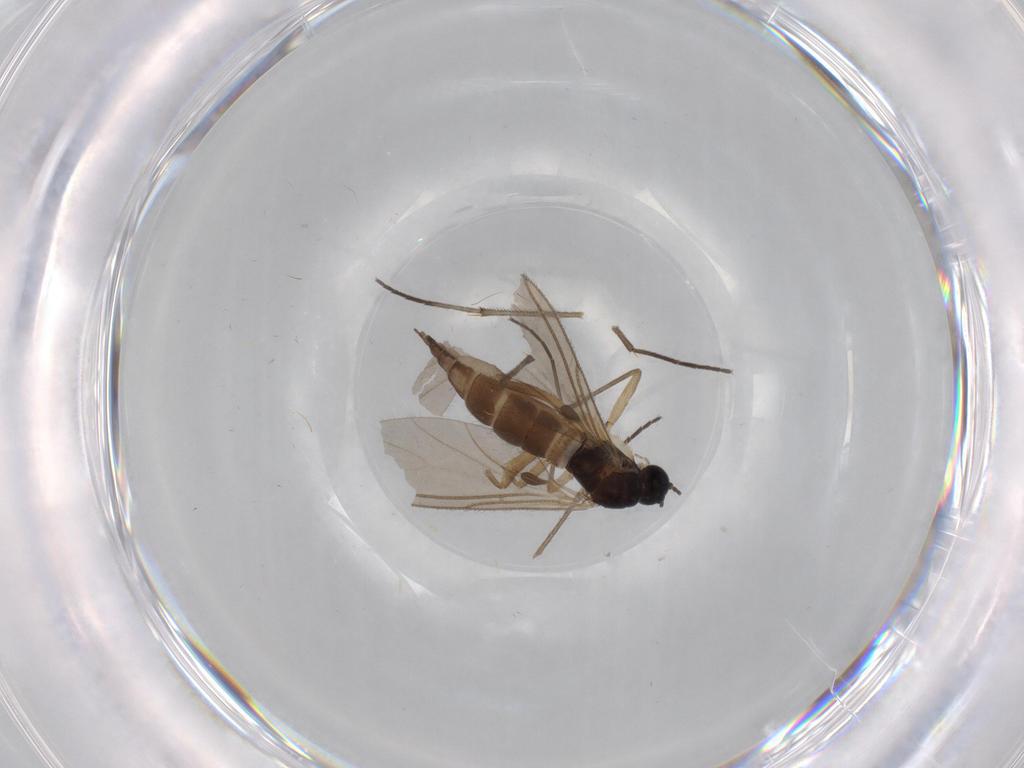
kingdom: Animalia
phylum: Arthropoda
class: Insecta
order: Diptera
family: Sciaridae
